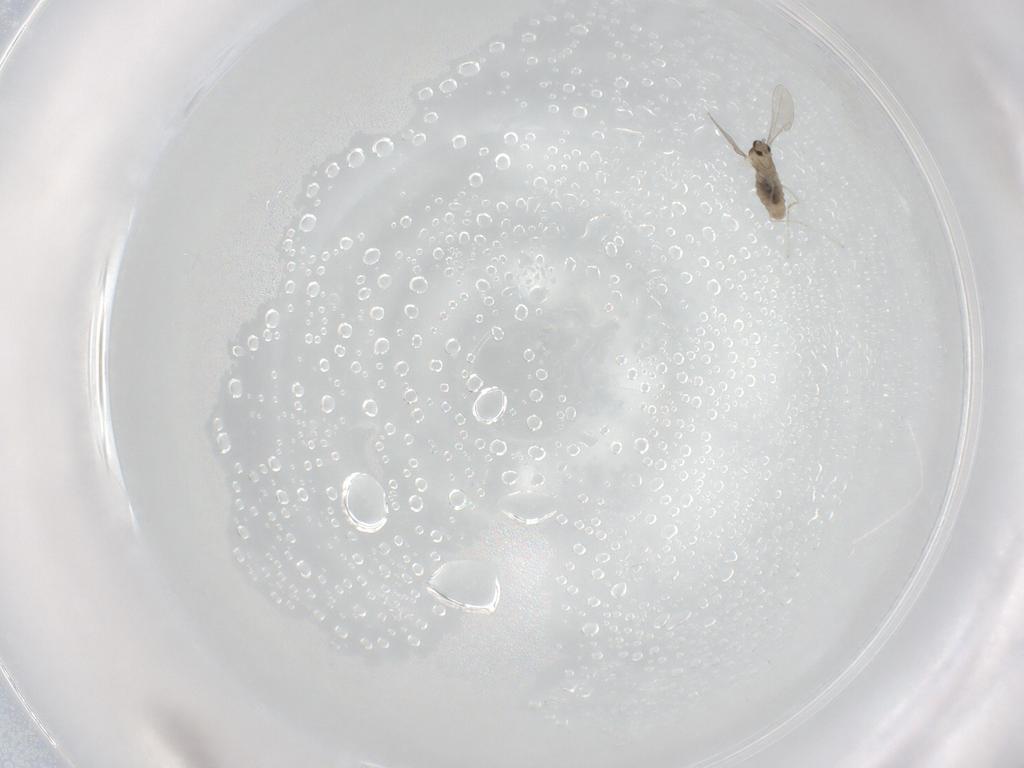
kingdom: Animalia
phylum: Arthropoda
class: Insecta
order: Diptera
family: Cecidomyiidae
